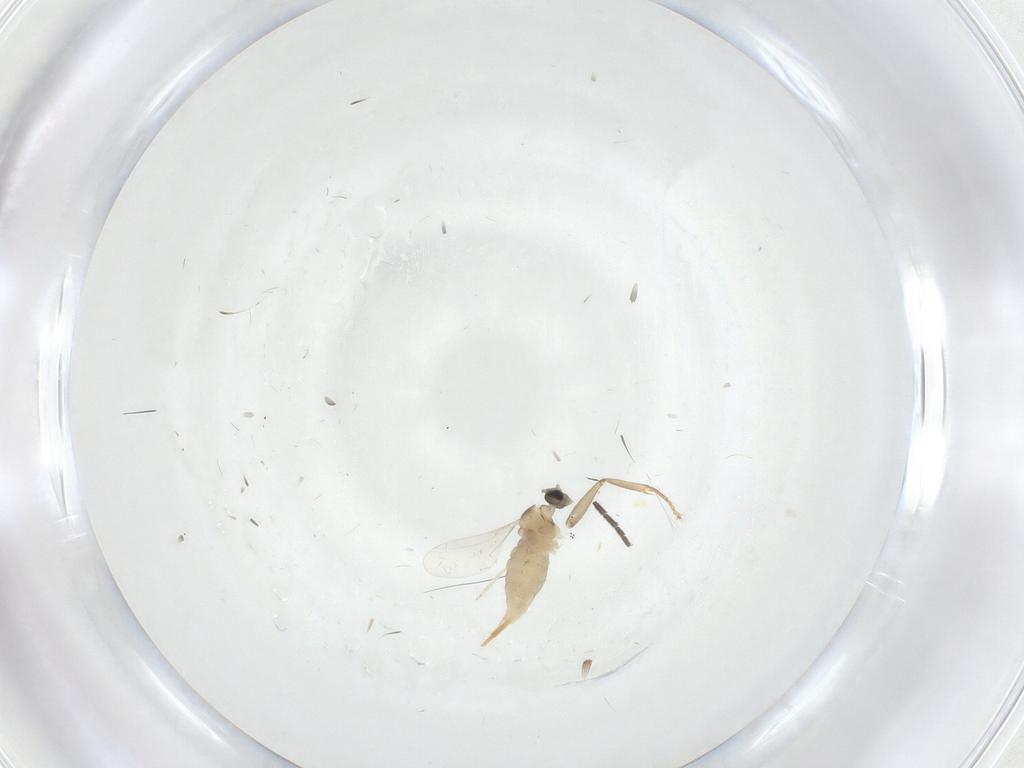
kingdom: Animalia
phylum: Arthropoda
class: Insecta
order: Diptera
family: Cecidomyiidae
